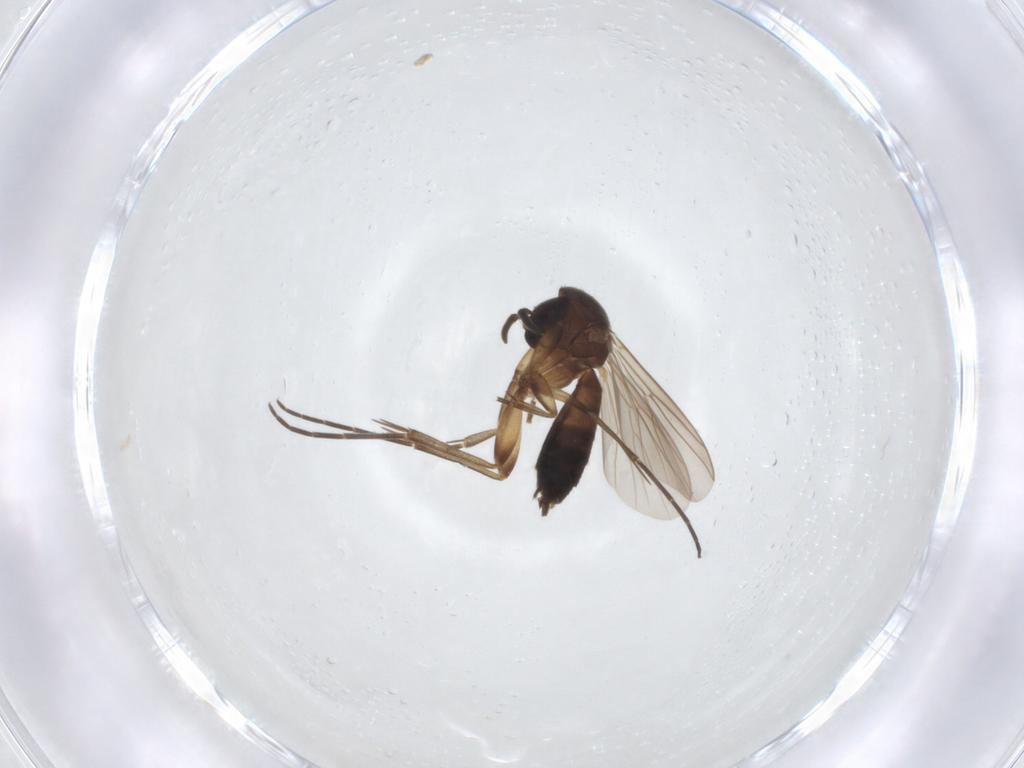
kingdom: Animalia
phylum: Arthropoda
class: Insecta
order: Diptera
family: Mycetophilidae
